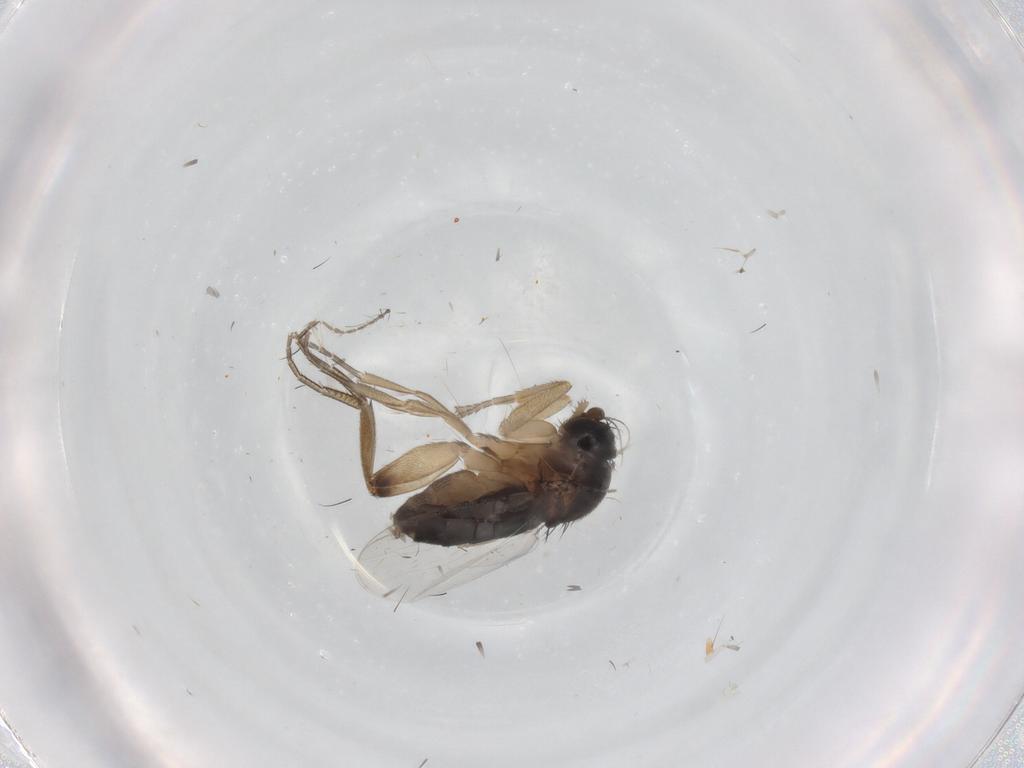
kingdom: Animalia
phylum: Arthropoda
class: Insecta
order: Diptera
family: Phoridae
